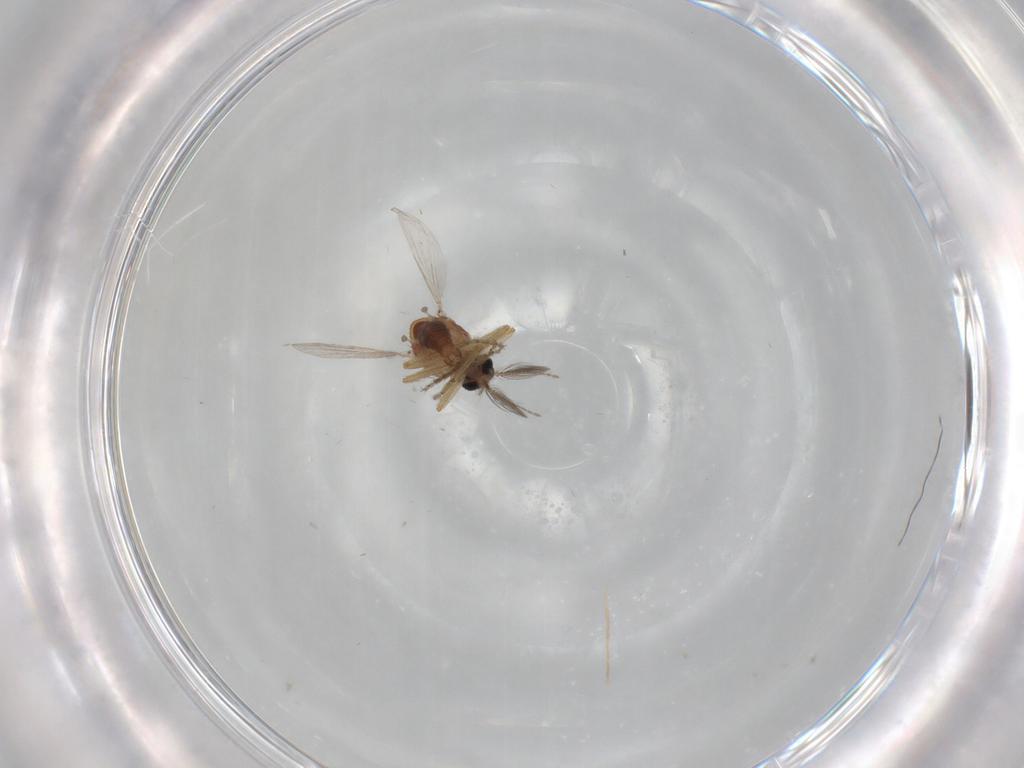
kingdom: Animalia
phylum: Arthropoda
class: Insecta
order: Diptera
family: Ceratopogonidae
